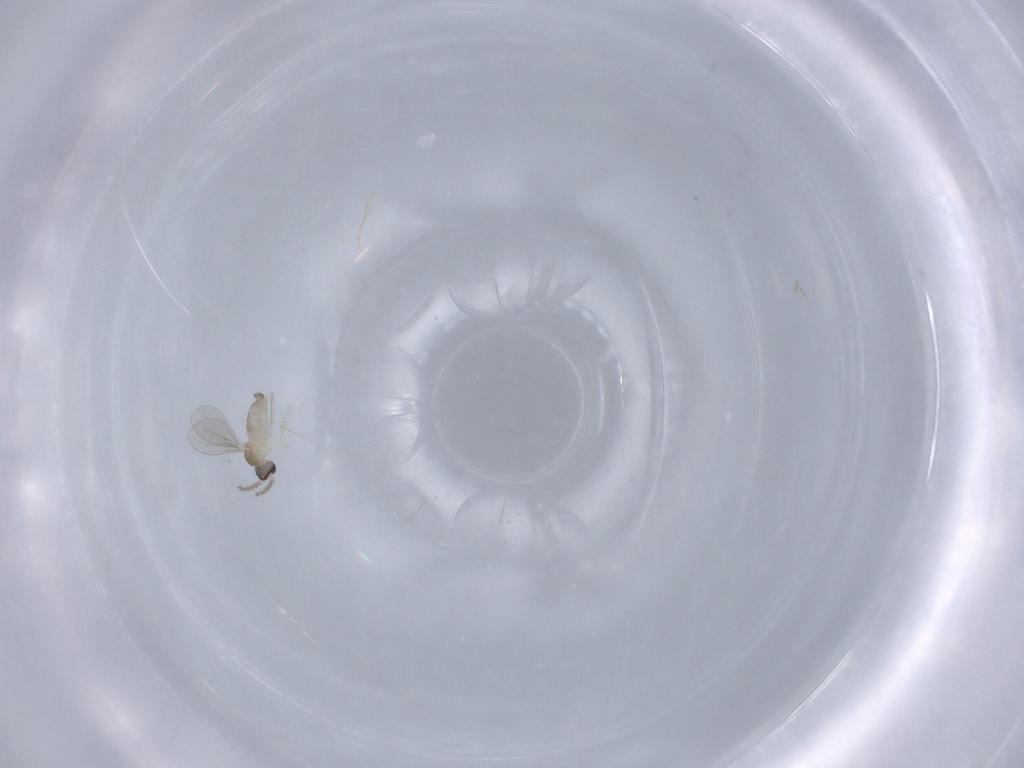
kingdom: Animalia
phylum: Arthropoda
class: Insecta
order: Diptera
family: Cecidomyiidae
